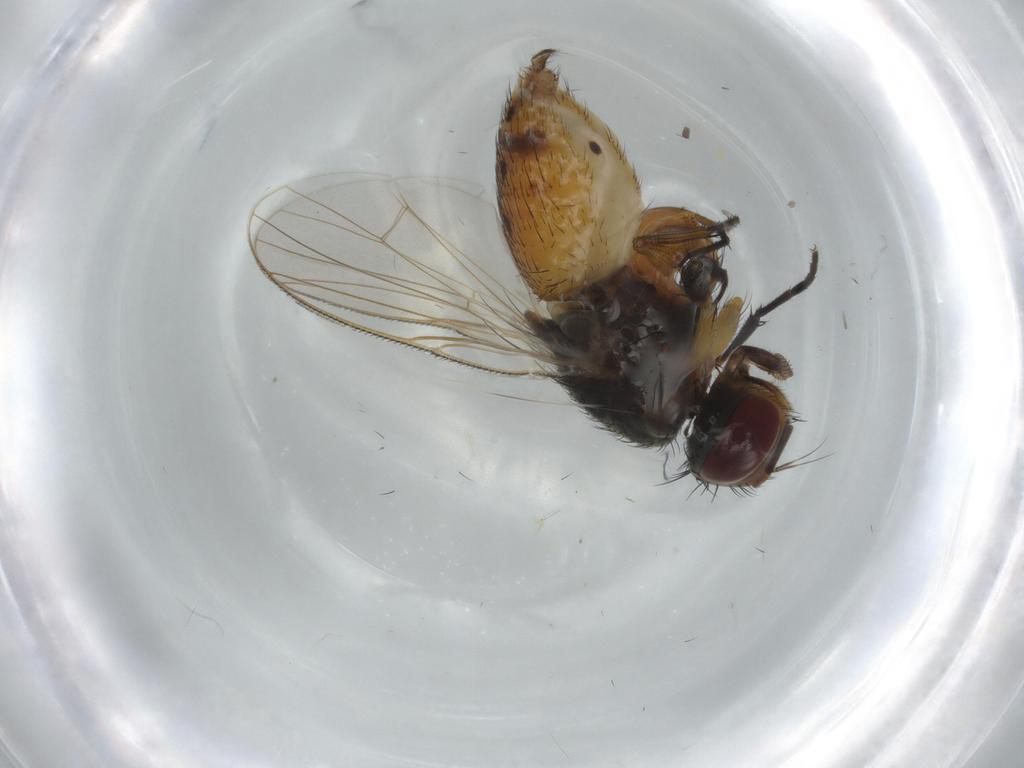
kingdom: Animalia
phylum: Arthropoda
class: Insecta
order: Diptera
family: Muscidae
